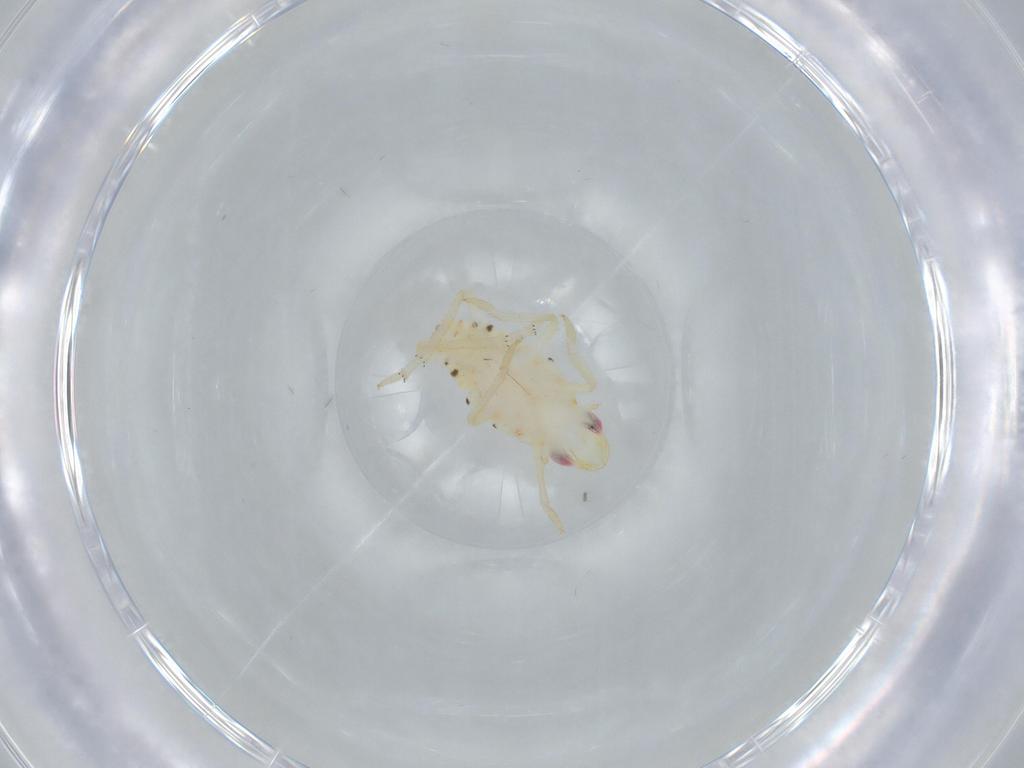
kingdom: Animalia
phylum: Arthropoda
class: Insecta
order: Hemiptera
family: Tropiduchidae
